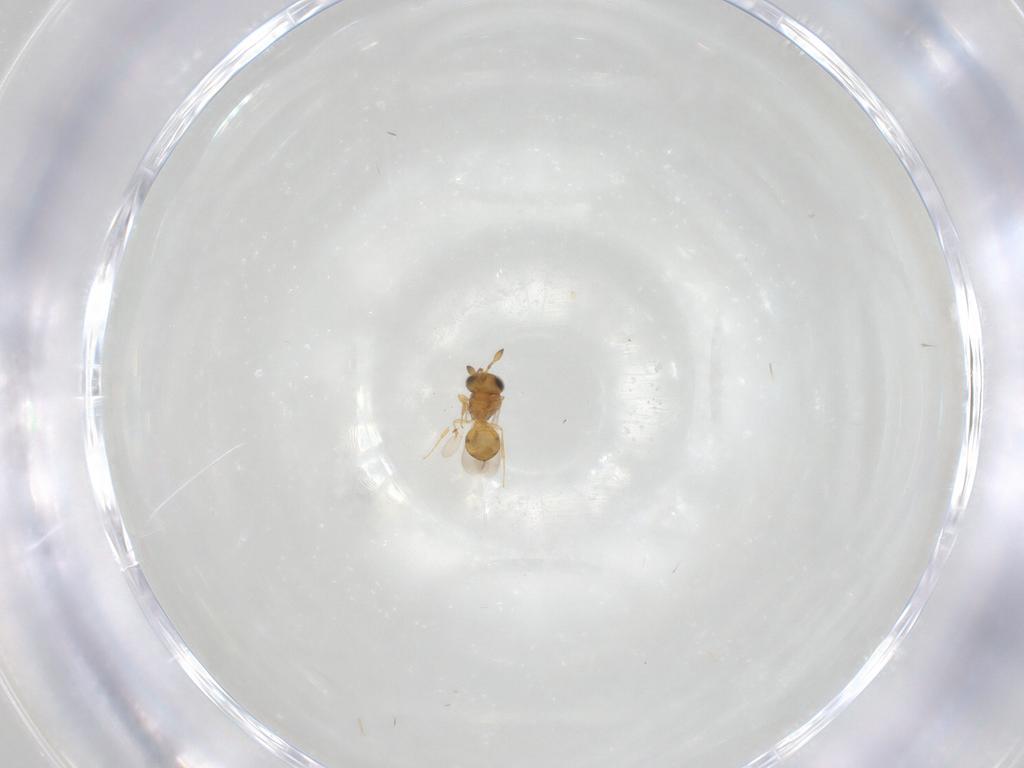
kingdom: Animalia
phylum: Arthropoda
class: Insecta
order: Hymenoptera
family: Scelionidae
